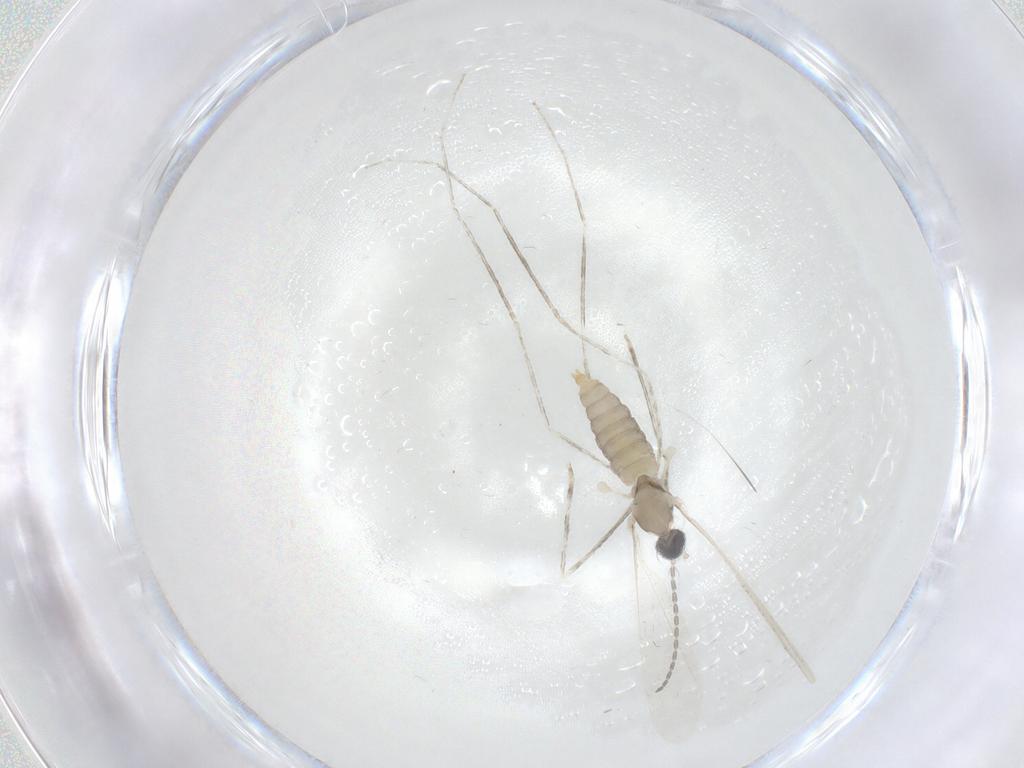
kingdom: Animalia
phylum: Arthropoda
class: Insecta
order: Diptera
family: Cecidomyiidae
